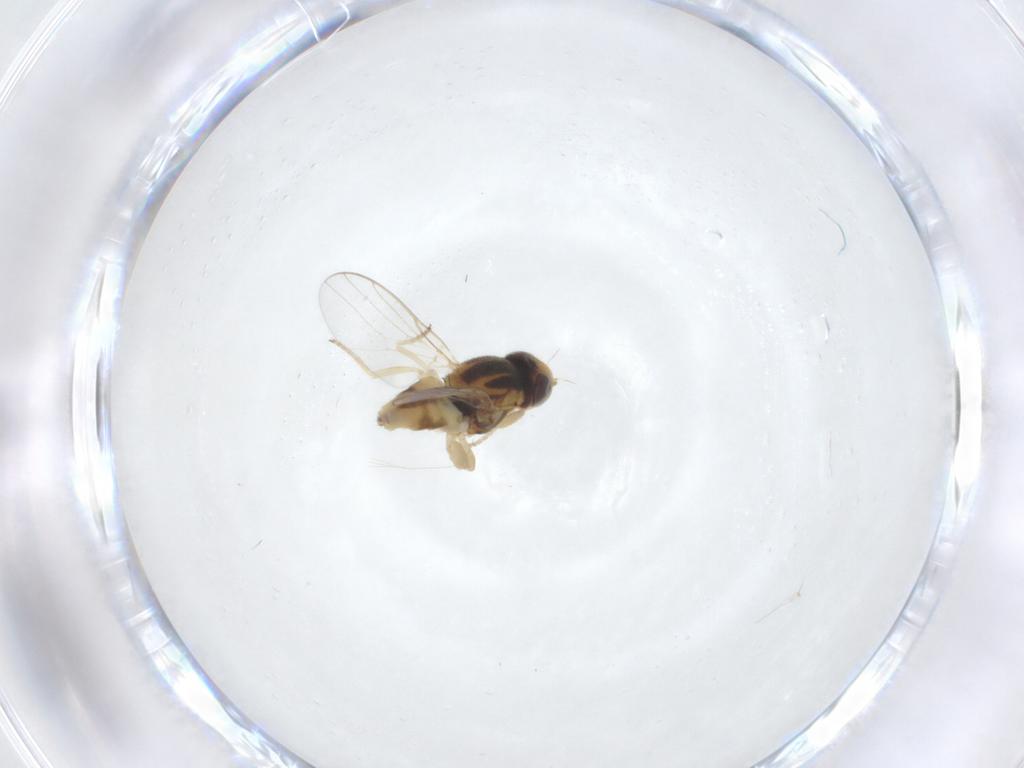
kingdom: Animalia
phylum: Arthropoda
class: Insecta
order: Diptera
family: Chloropidae
